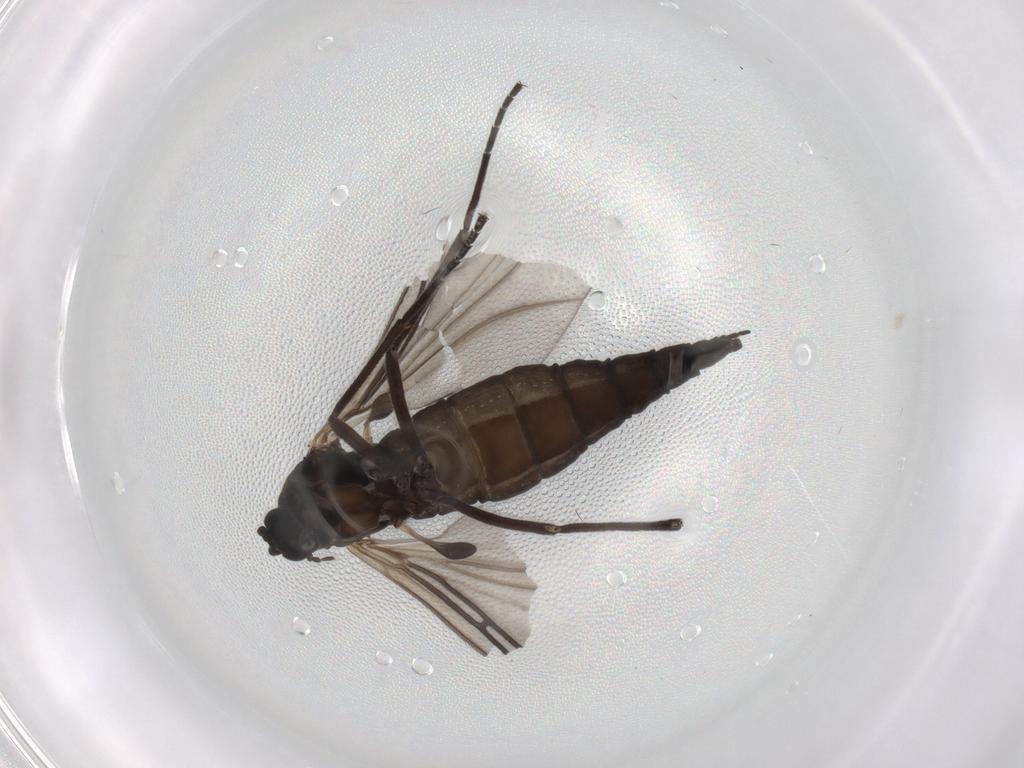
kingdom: Animalia
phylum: Arthropoda
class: Insecta
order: Diptera
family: Sciaridae
